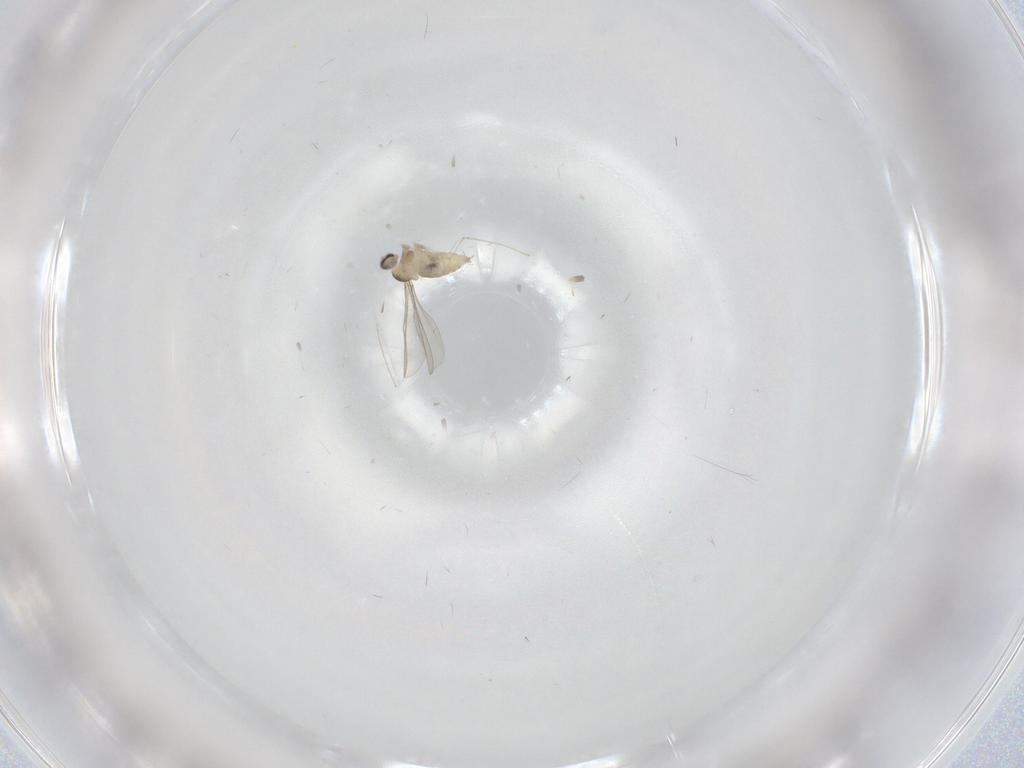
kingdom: Animalia
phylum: Arthropoda
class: Insecta
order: Diptera
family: Cecidomyiidae
